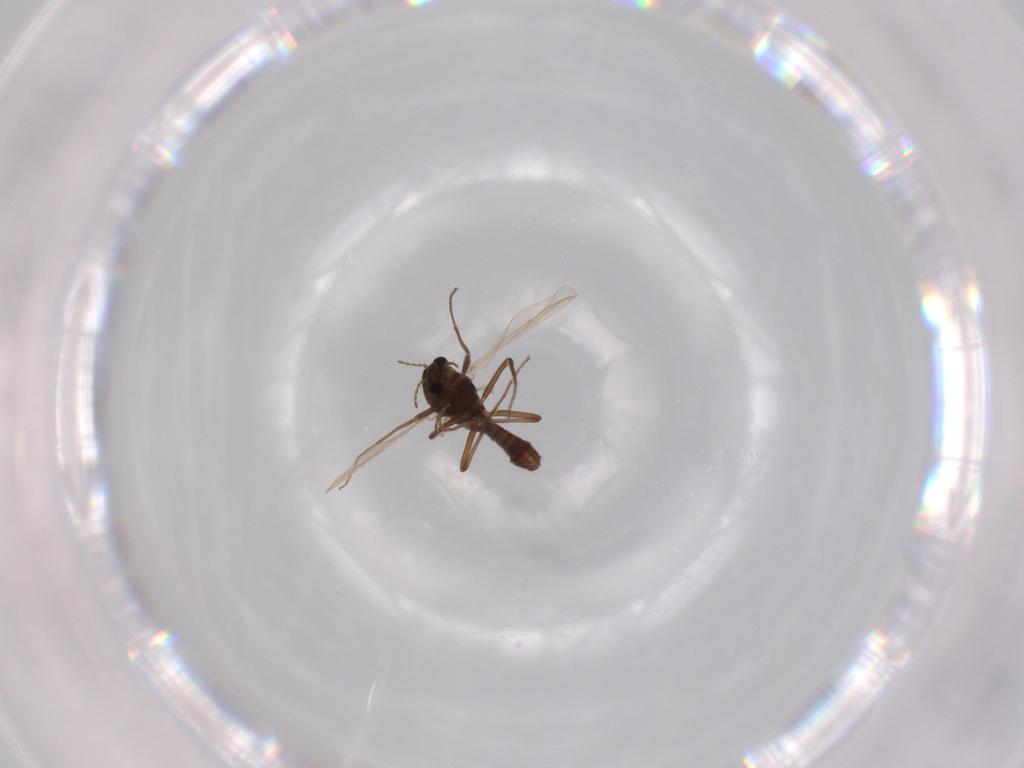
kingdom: Animalia
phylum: Arthropoda
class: Insecta
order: Diptera
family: Chironomidae
